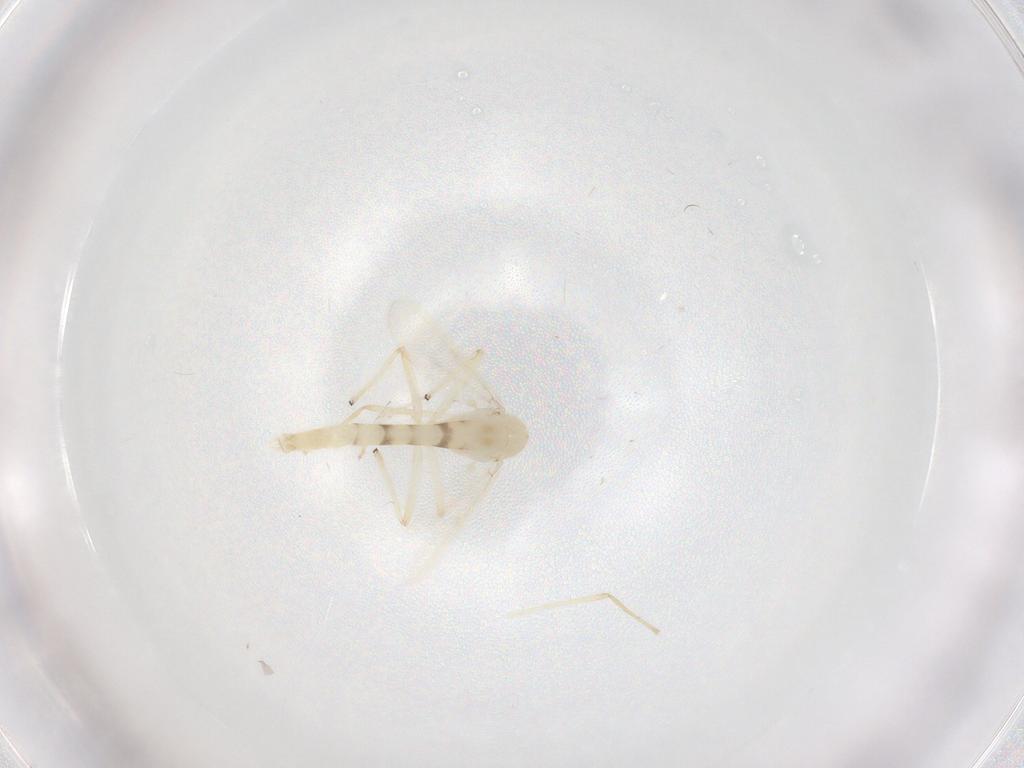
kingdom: Animalia
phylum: Arthropoda
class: Insecta
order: Diptera
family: Chironomidae
